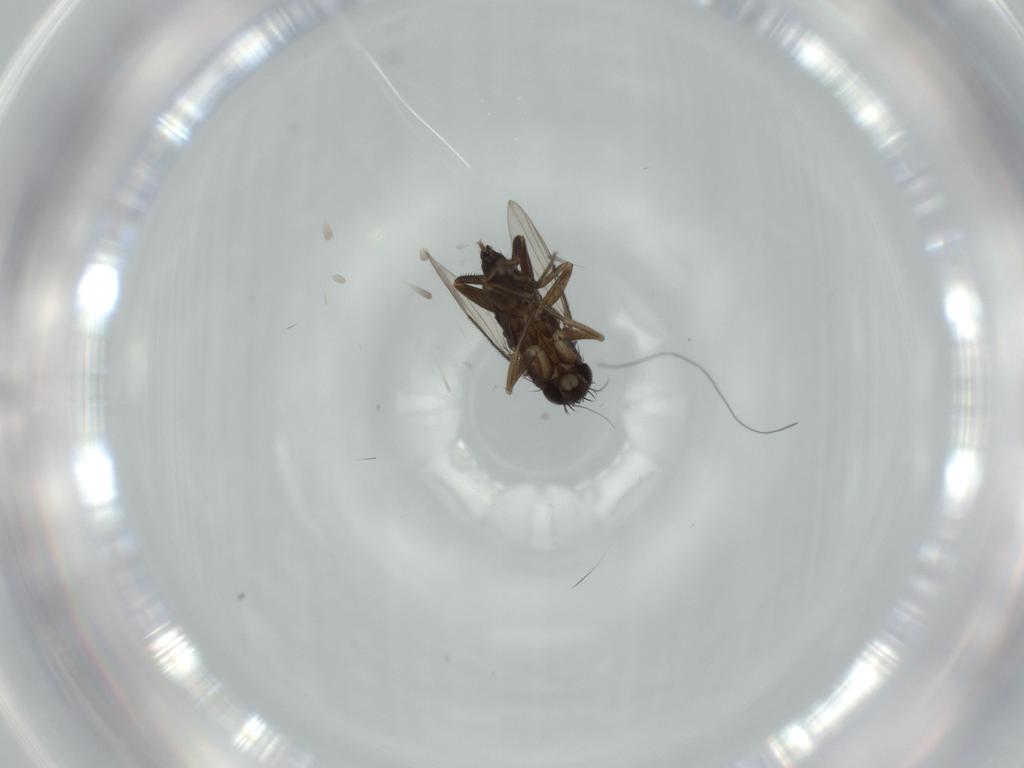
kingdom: Animalia
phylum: Arthropoda
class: Insecta
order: Diptera
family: Phoridae
